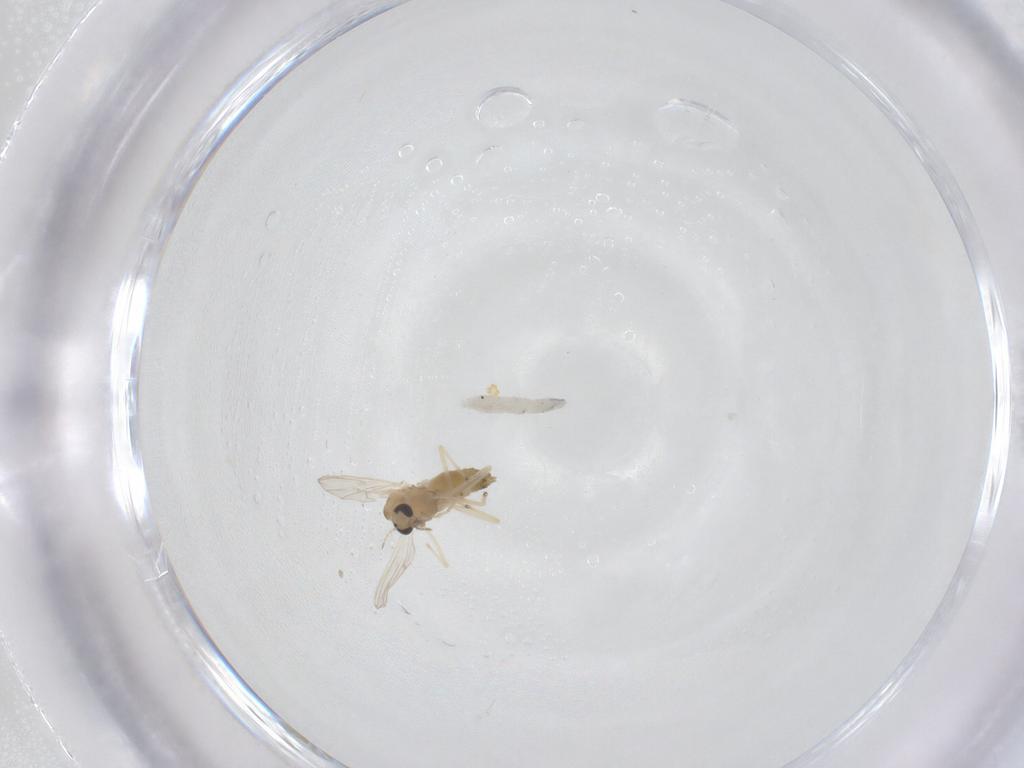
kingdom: Animalia
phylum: Arthropoda
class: Insecta
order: Diptera
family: Chironomidae
